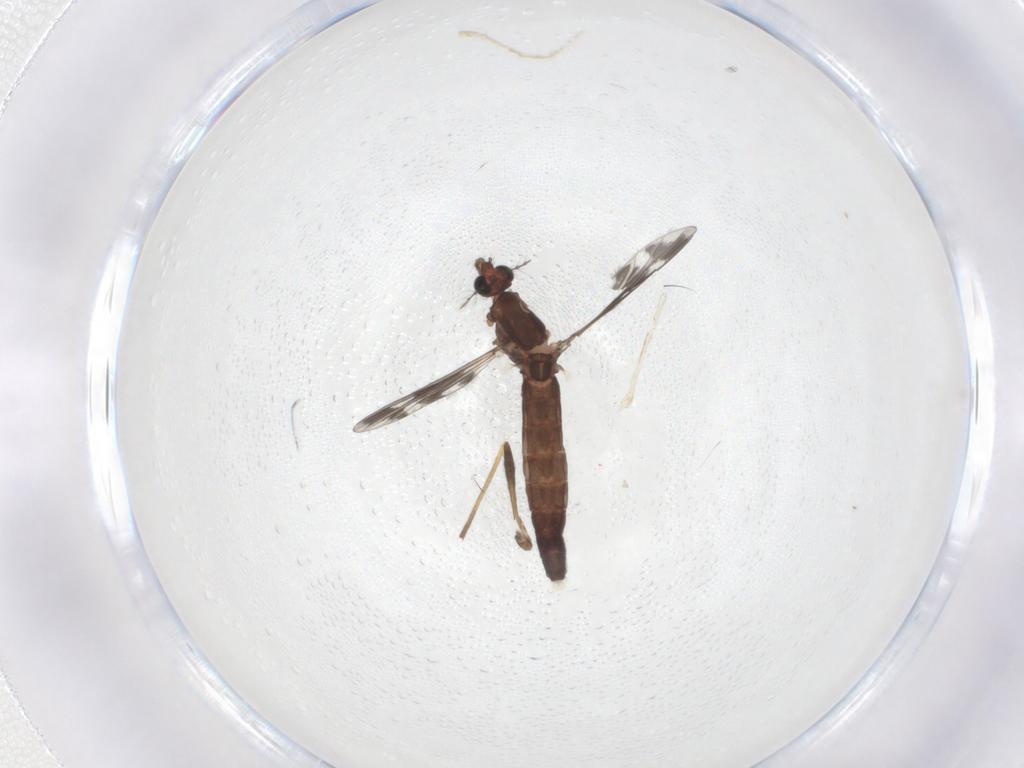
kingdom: Animalia
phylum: Arthropoda
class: Insecta
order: Diptera
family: Chironomidae
